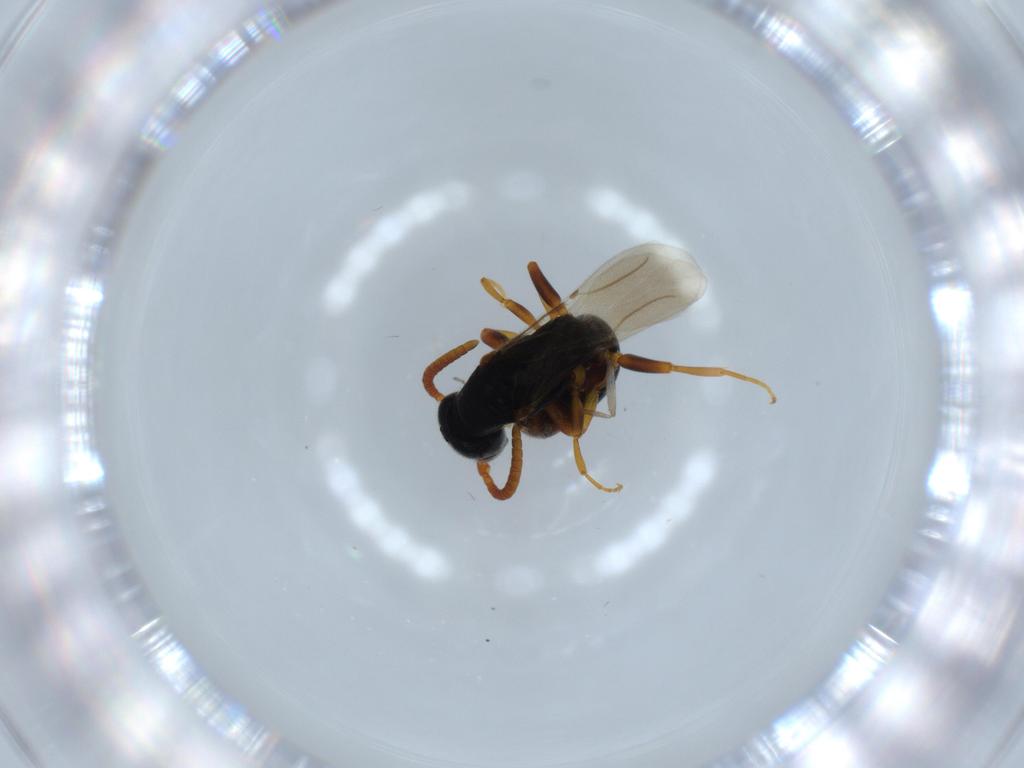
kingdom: Animalia
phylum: Arthropoda
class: Insecta
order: Hymenoptera
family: Bethylidae
